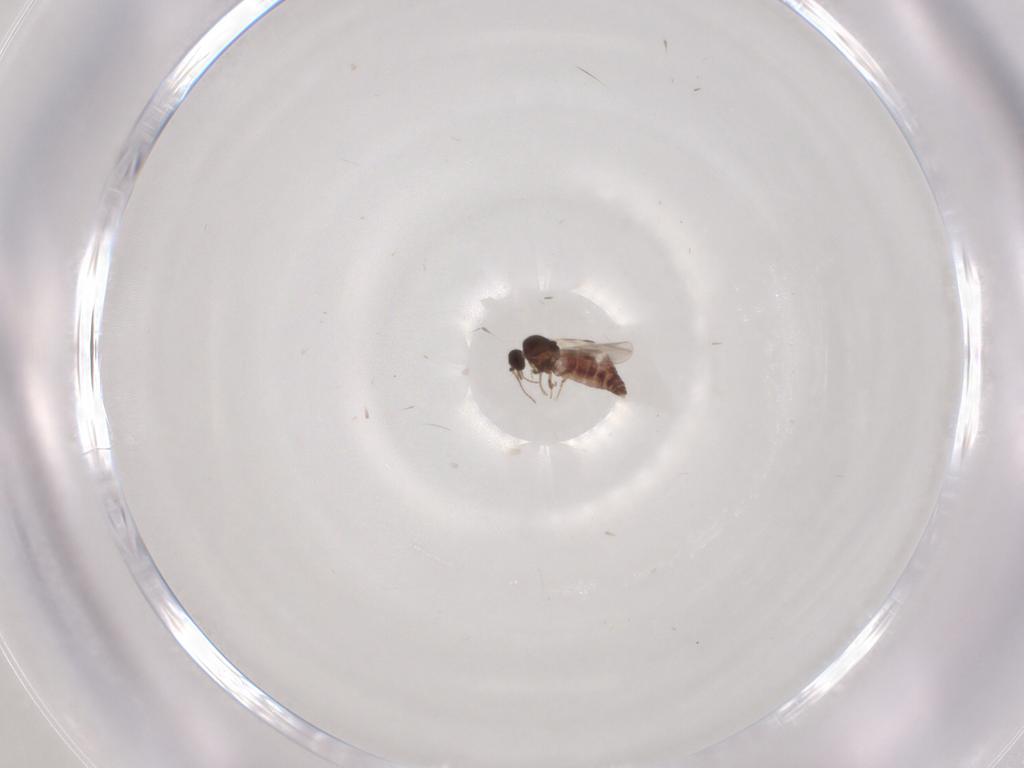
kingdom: Animalia
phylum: Arthropoda
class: Insecta
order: Diptera
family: Cecidomyiidae
